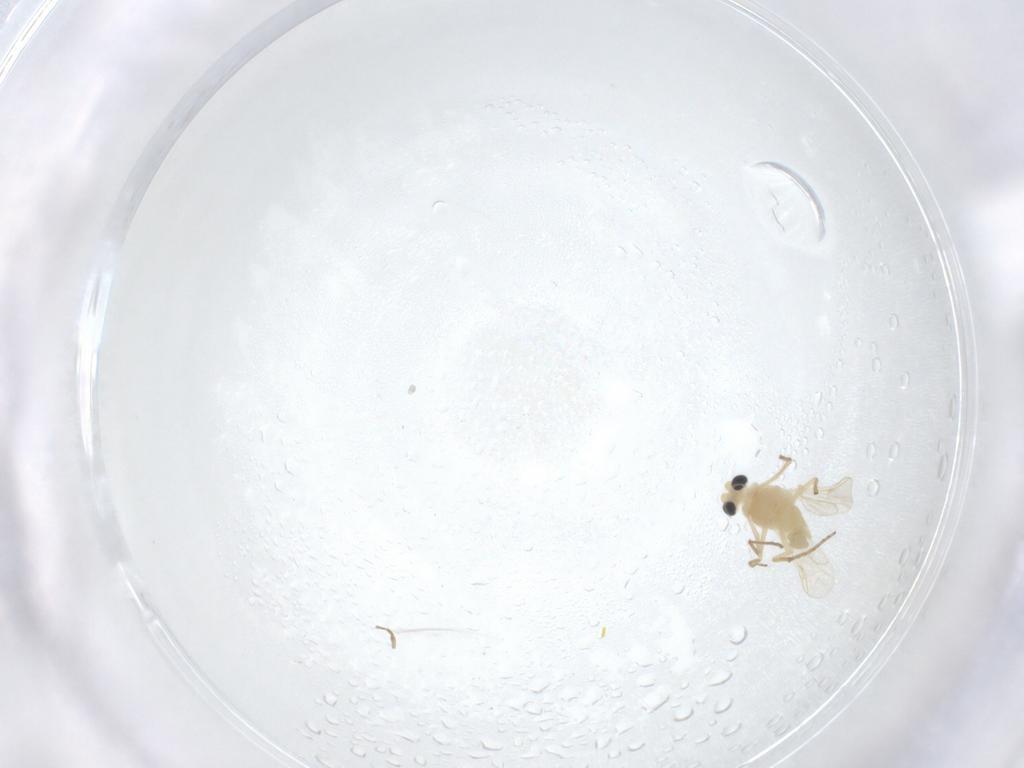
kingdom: Animalia
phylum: Arthropoda
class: Insecta
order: Diptera
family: Chironomidae
